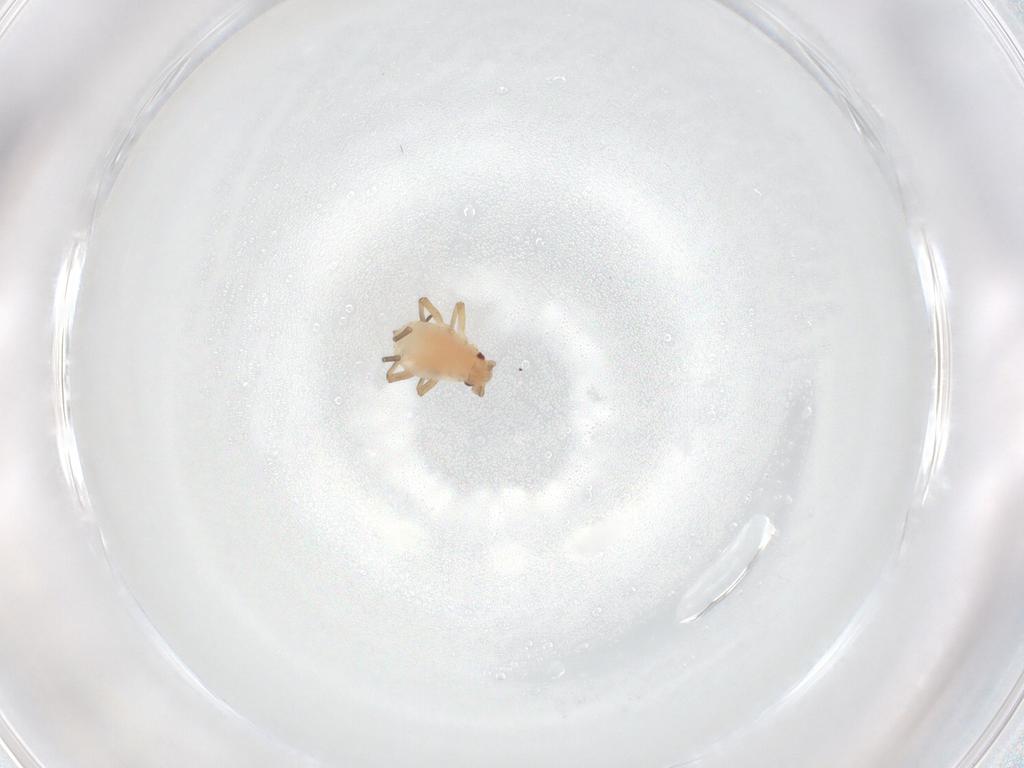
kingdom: Animalia
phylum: Arthropoda
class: Insecta
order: Hemiptera
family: Aphididae
